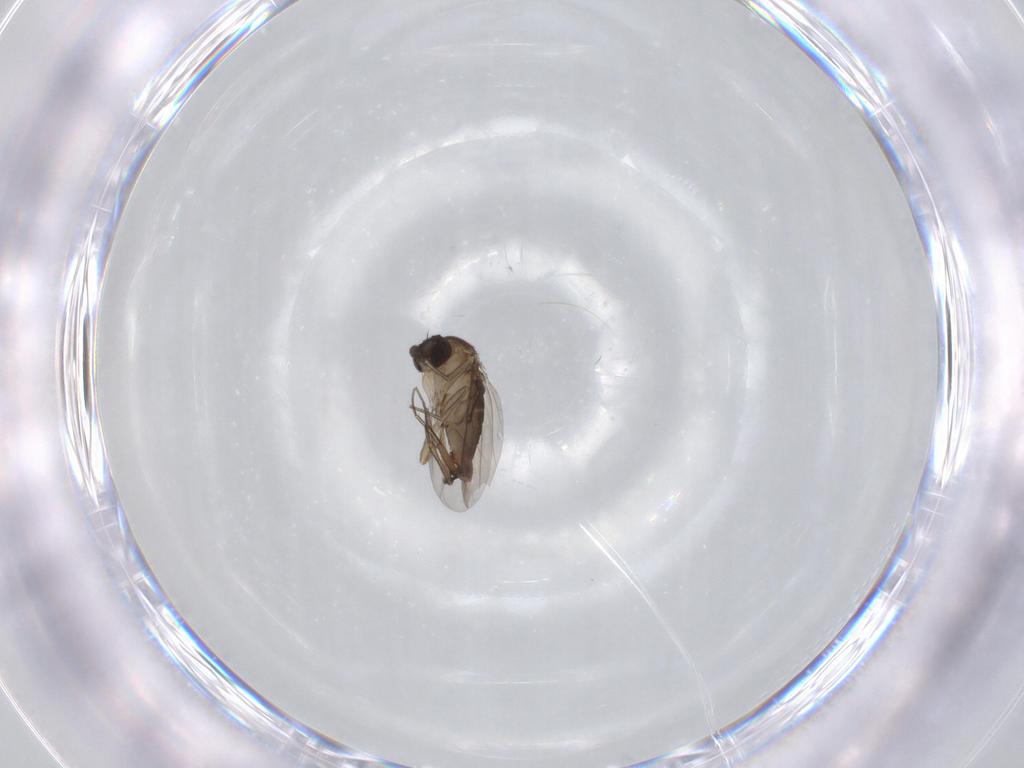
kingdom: Animalia
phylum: Arthropoda
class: Insecta
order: Diptera
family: Phoridae
